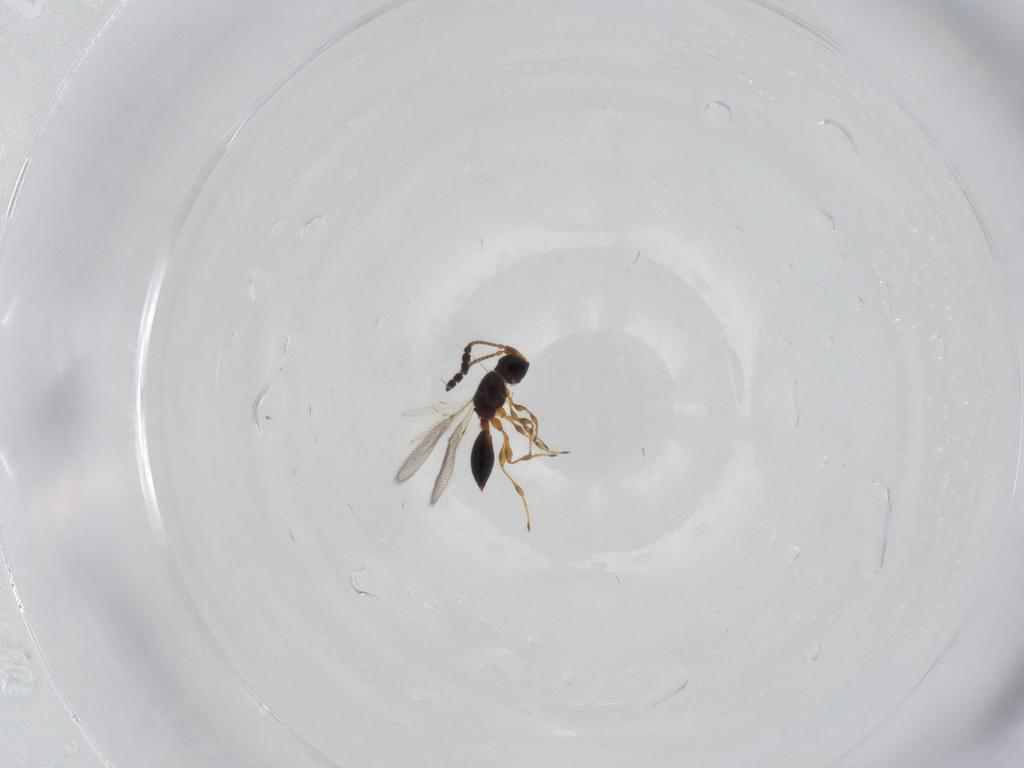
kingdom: Animalia
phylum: Arthropoda
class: Insecta
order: Hymenoptera
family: Diapriidae
